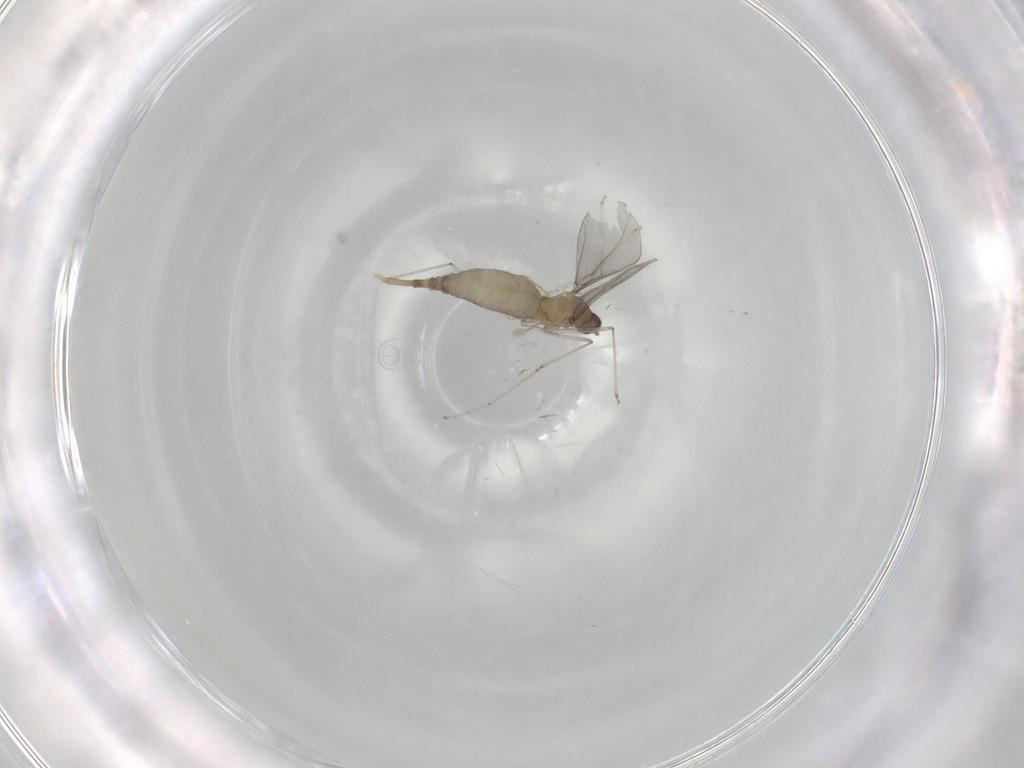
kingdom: Animalia
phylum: Arthropoda
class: Insecta
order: Diptera
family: Cecidomyiidae
